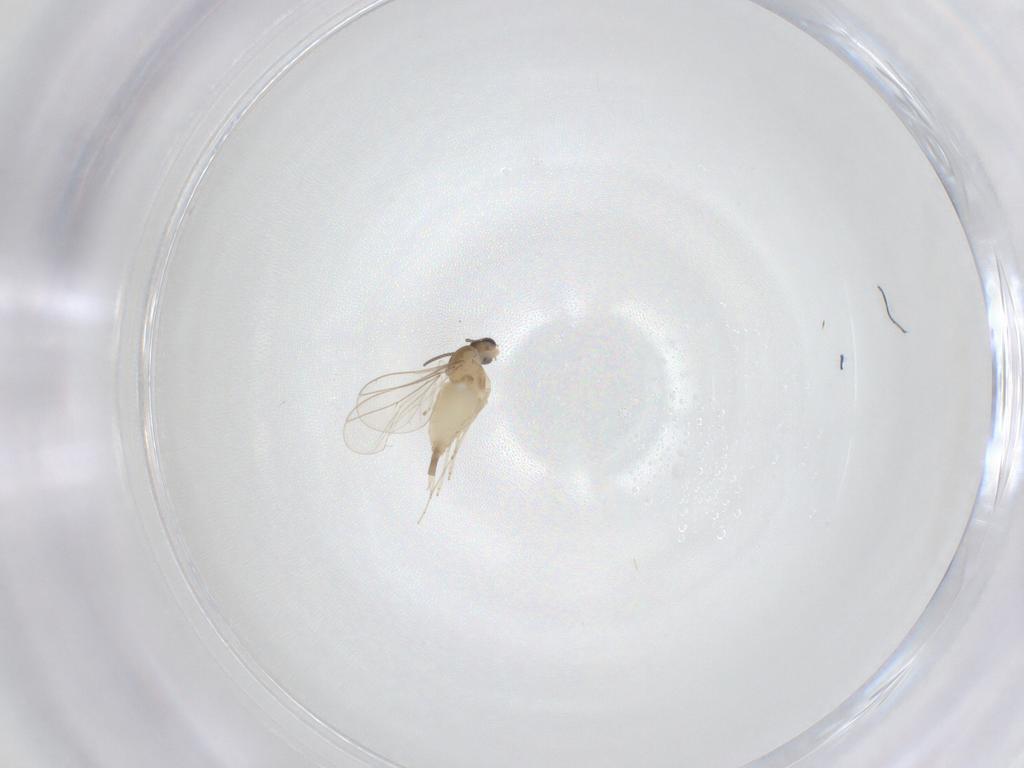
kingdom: Animalia
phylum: Arthropoda
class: Insecta
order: Diptera
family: Cecidomyiidae
